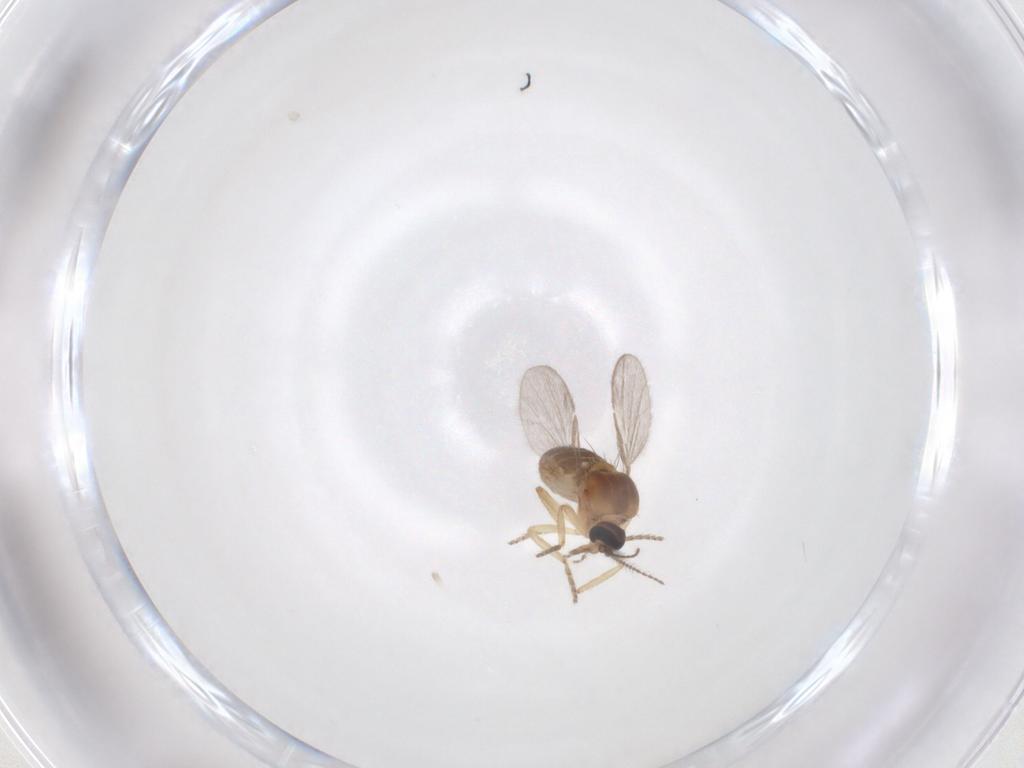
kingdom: Animalia
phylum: Arthropoda
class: Insecta
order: Diptera
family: Ceratopogonidae
